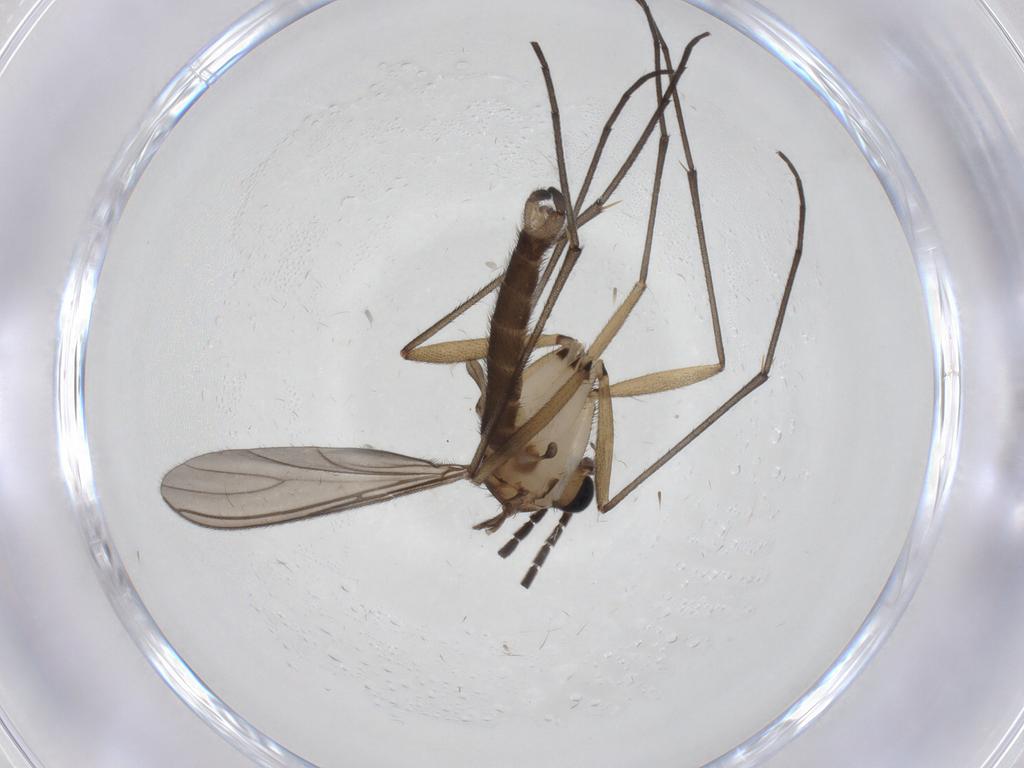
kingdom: Animalia
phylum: Arthropoda
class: Insecta
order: Diptera
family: Sciaridae
